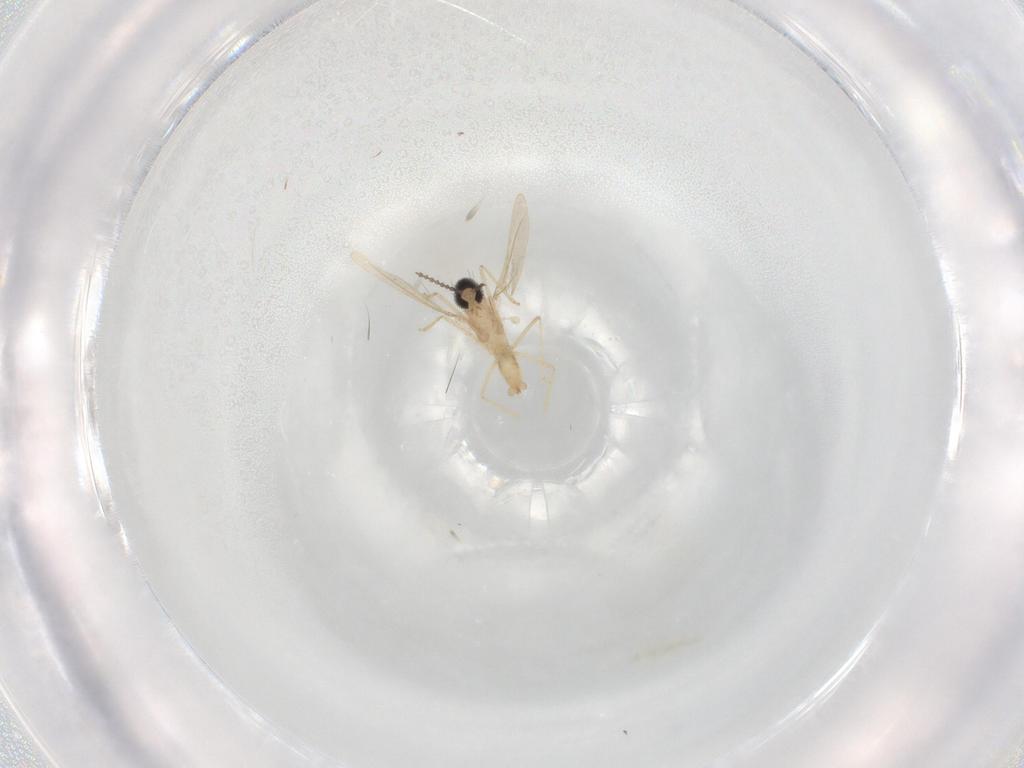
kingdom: Animalia
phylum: Arthropoda
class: Insecta
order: Diptera
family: Cecidomyiidae
